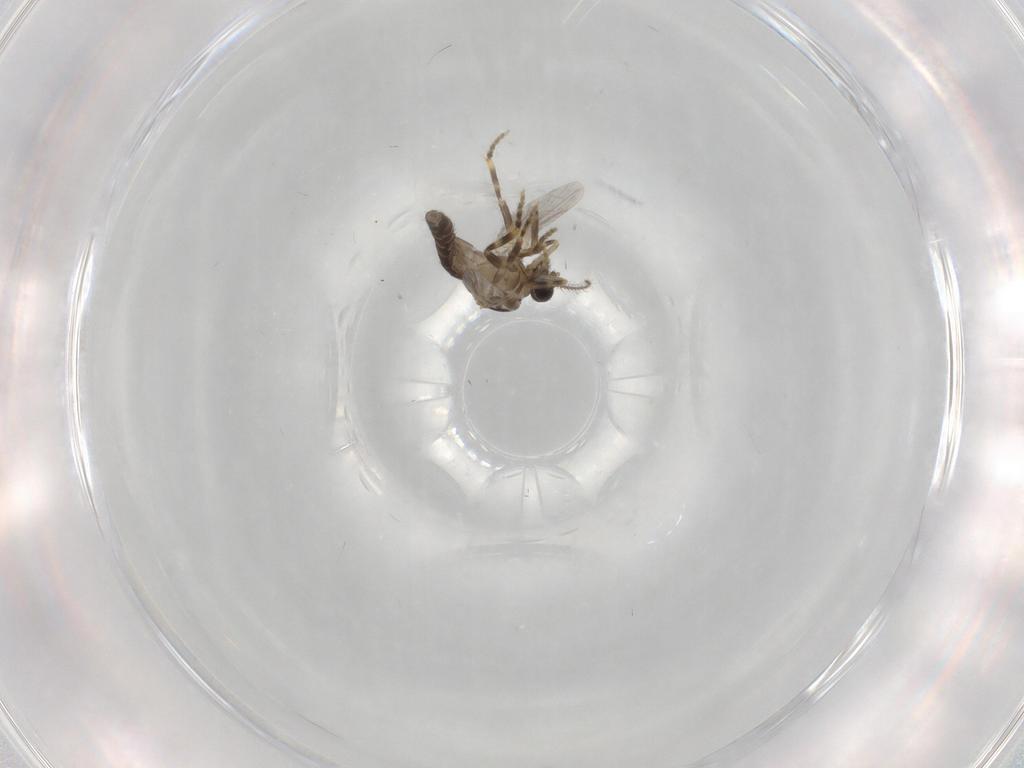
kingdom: Animalia
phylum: Arthropoda
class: Insecta
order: Diptera
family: Ceratopogonidae
